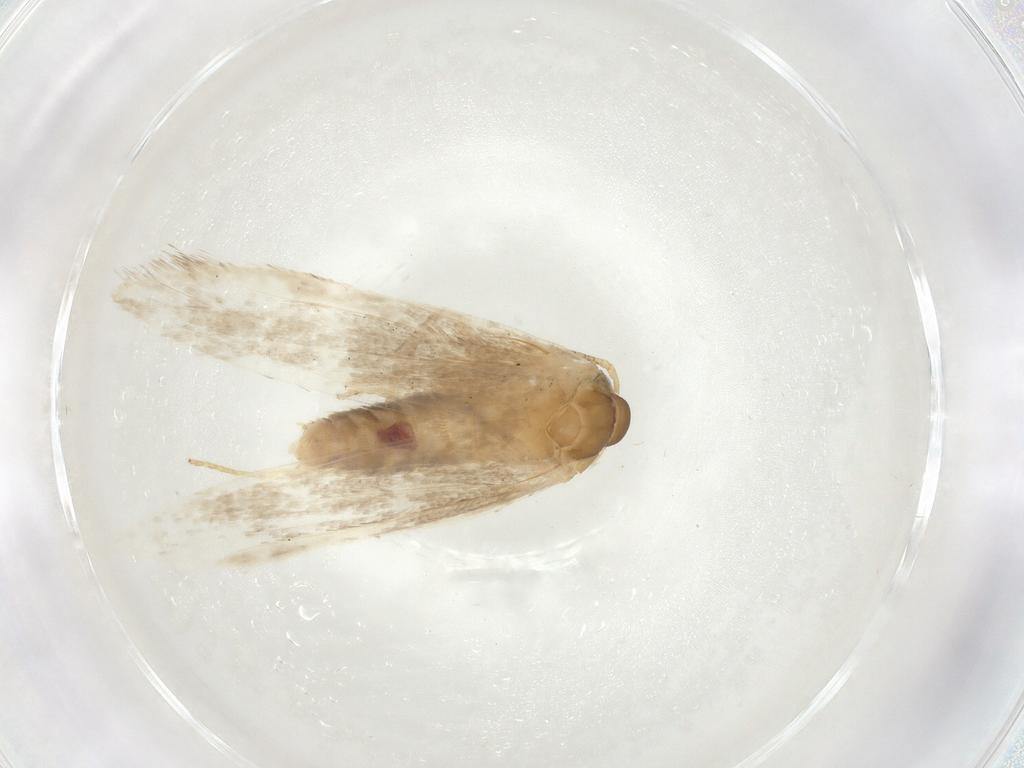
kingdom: Animalia
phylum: Arthropoda
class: Insecta
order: Lepidoptera
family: Blastobasidae
